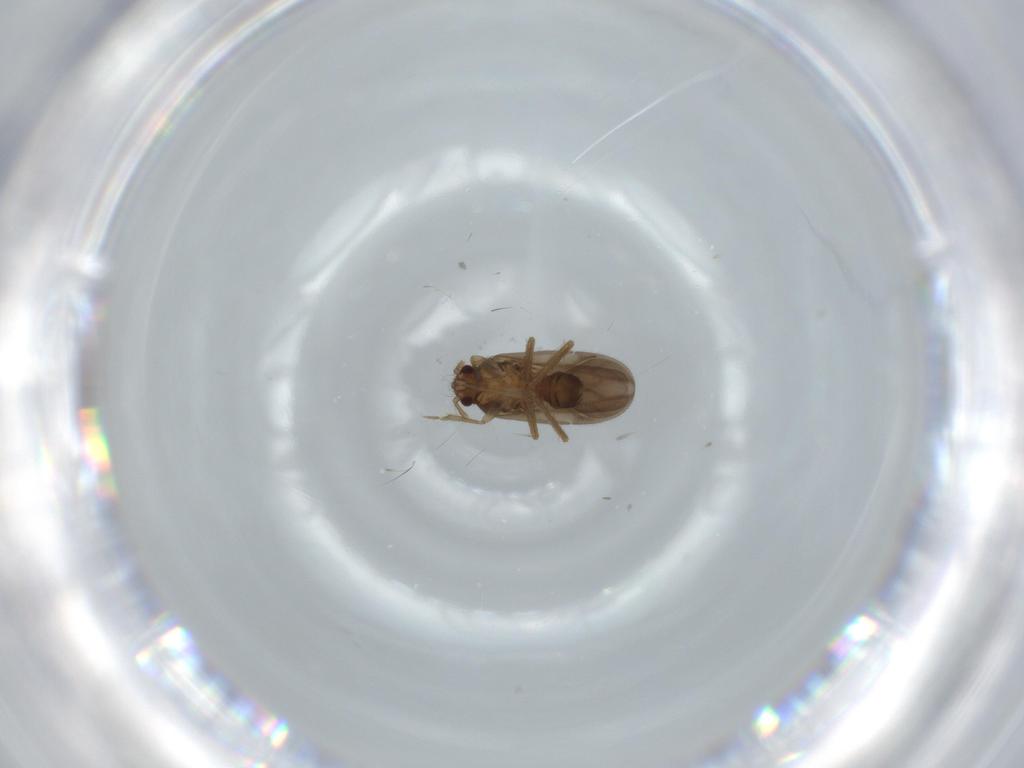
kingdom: Animalia
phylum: Arthropoda
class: Insecta
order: Hemiptera
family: Ceratocombidae
